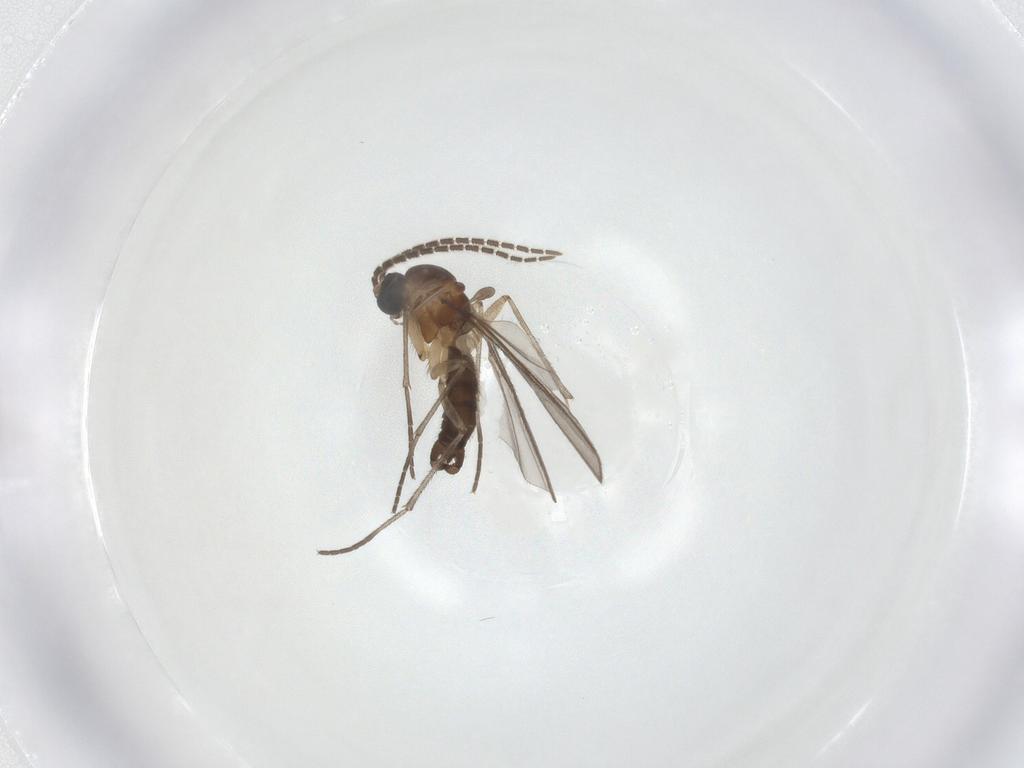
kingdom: Animalia
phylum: Arthropoda
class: Insecta
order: Diptera
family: Sciaridae
